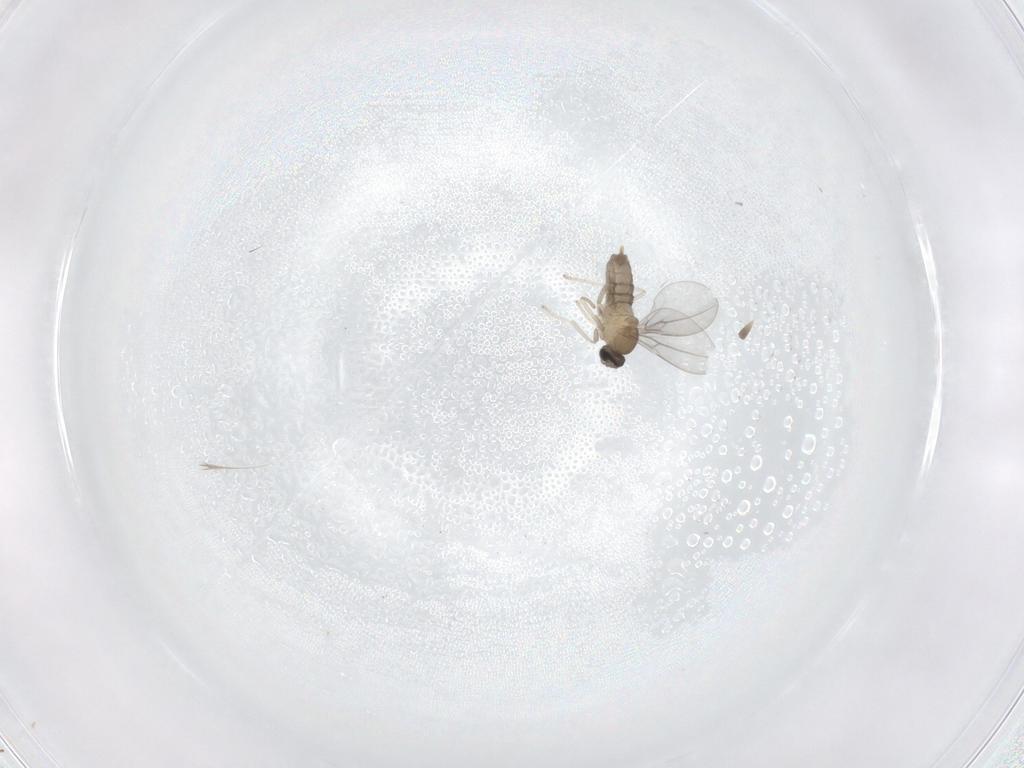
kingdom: Animalia
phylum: Arthropoda
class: Insecta
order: Diptera
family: Cecidomyiidae
